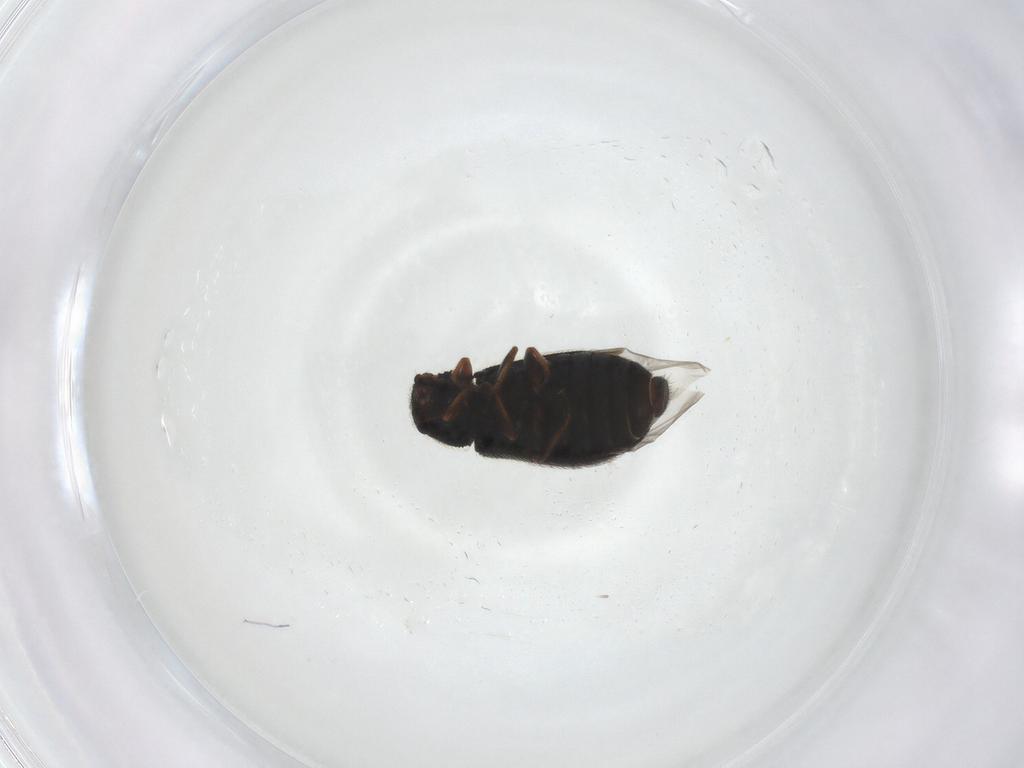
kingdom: Animalia
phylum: Arthropoda
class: Insecta
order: Coleoptera
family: Melyridae
